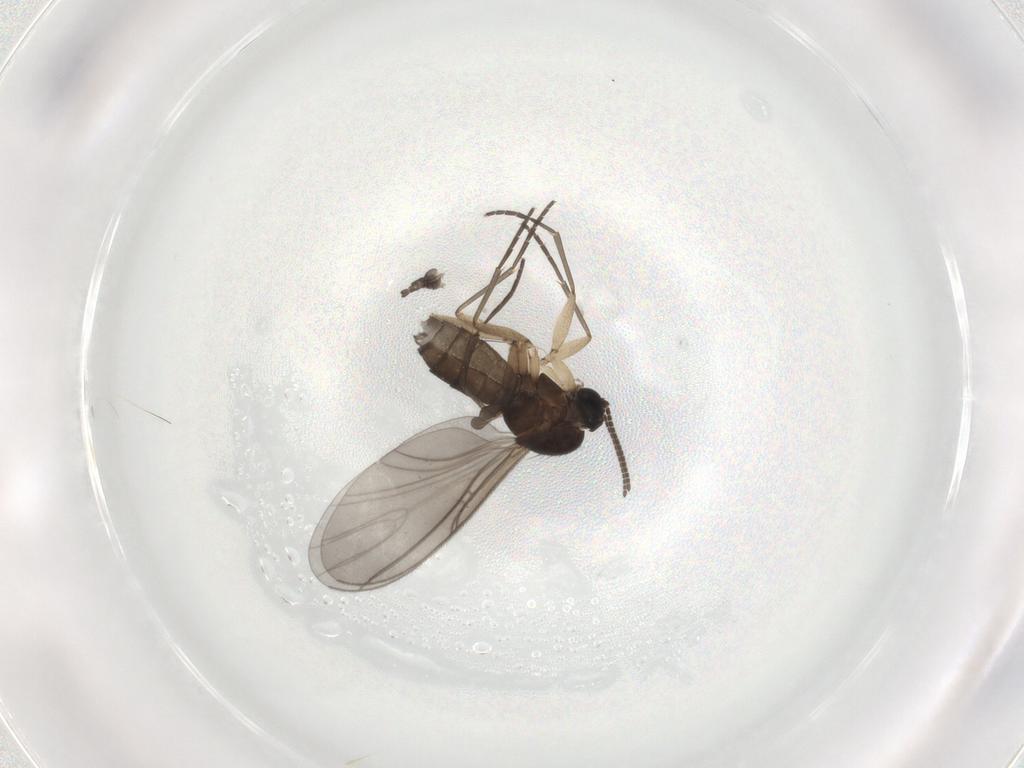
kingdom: Animalia
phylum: Arthropoda
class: Insecta
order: Diptera
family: Sciaridae
